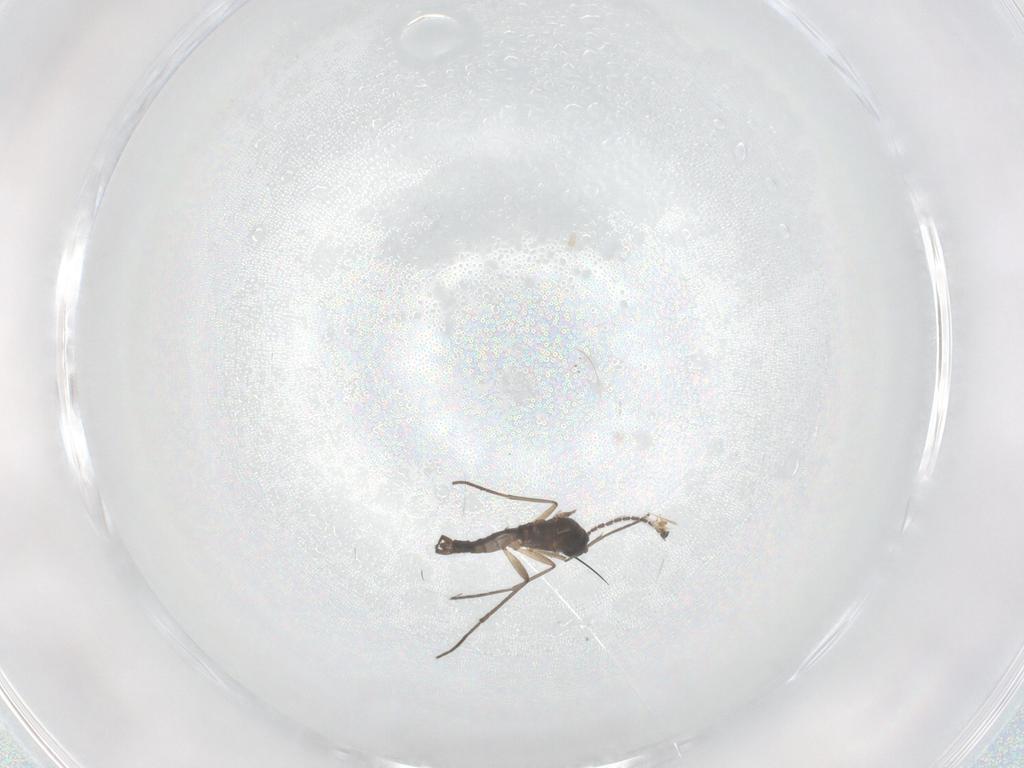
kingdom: Animalia
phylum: Arthropoda
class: Insecta
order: Diptera
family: Sciaridae
